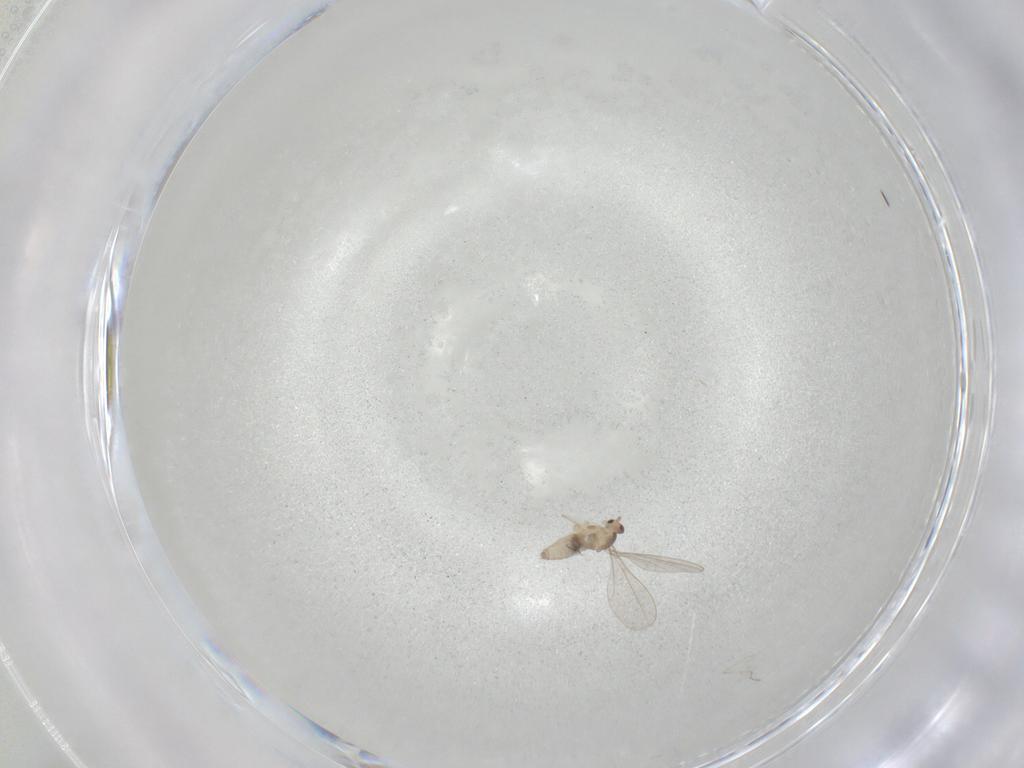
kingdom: Animalia
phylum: Arthropoda
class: Insecta
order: Diptera
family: Cecidomyiidae
